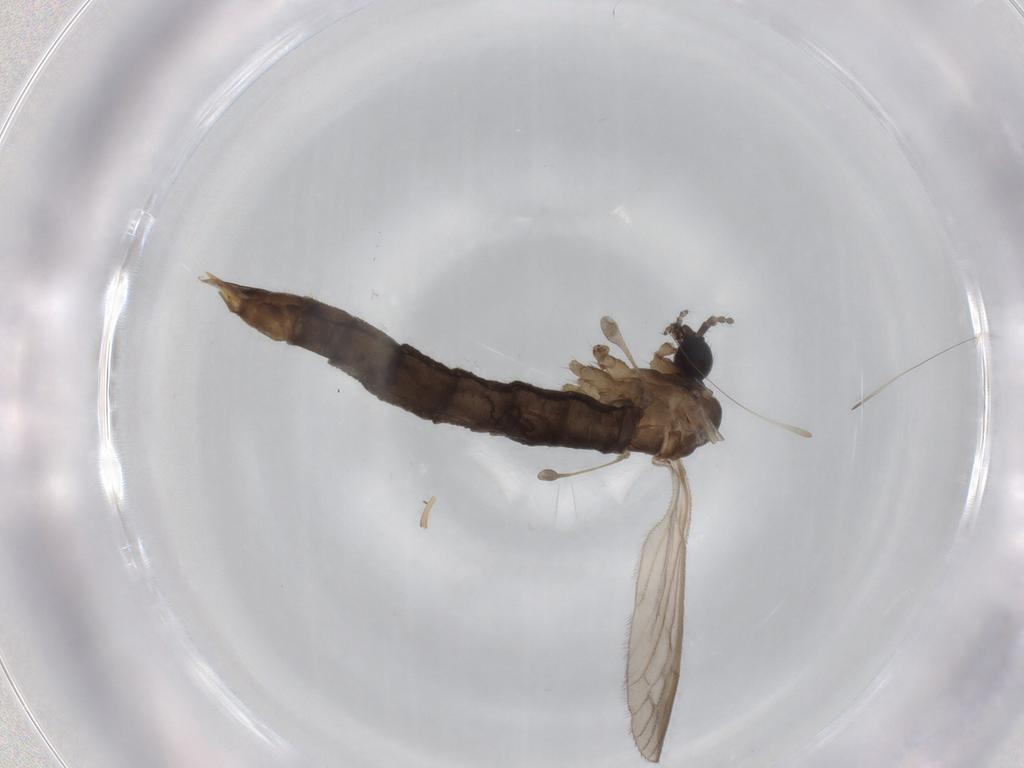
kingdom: Animalia
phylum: Arthropoda
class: Insecta
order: Diptera
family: Limoniidae
